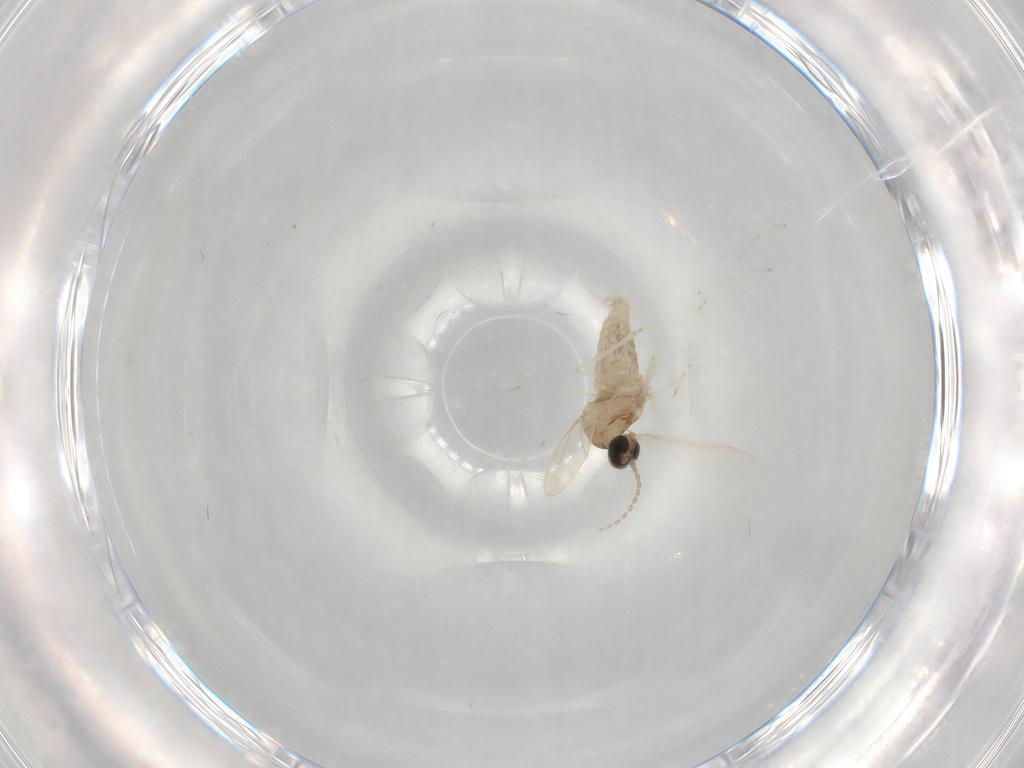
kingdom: Animalia
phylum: Arthropoda
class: Insecta
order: Diptera
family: Cecidomyiidae
